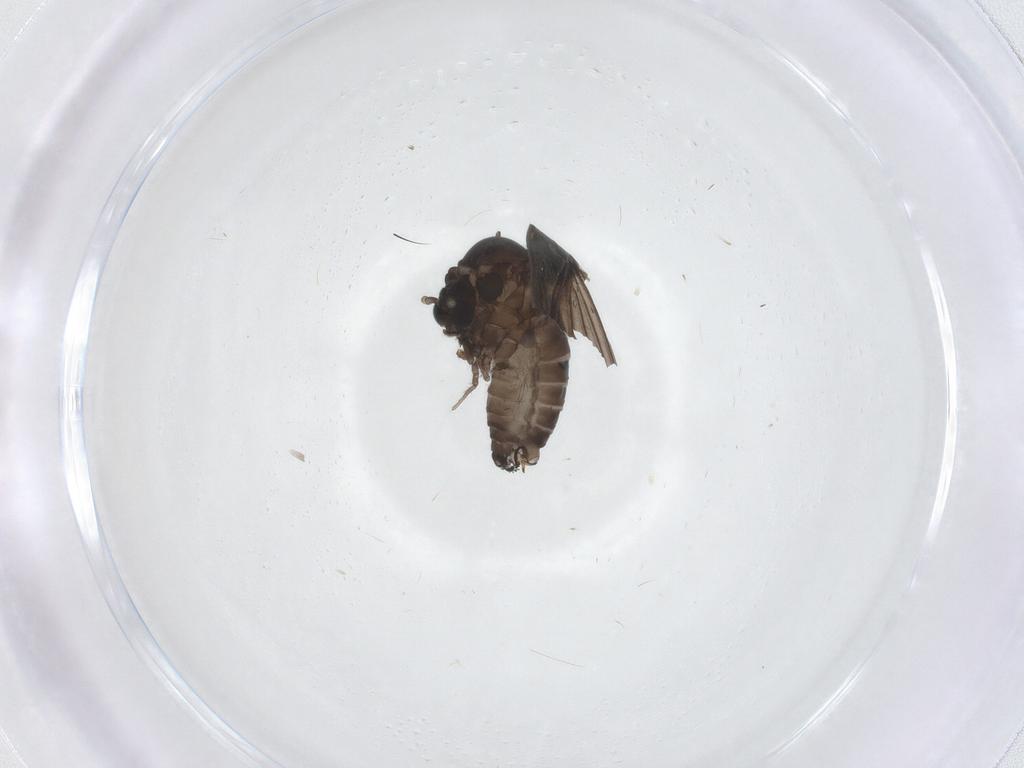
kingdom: Animalia
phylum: Arthropoda
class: Insecta
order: Diptera
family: Psychodidae
